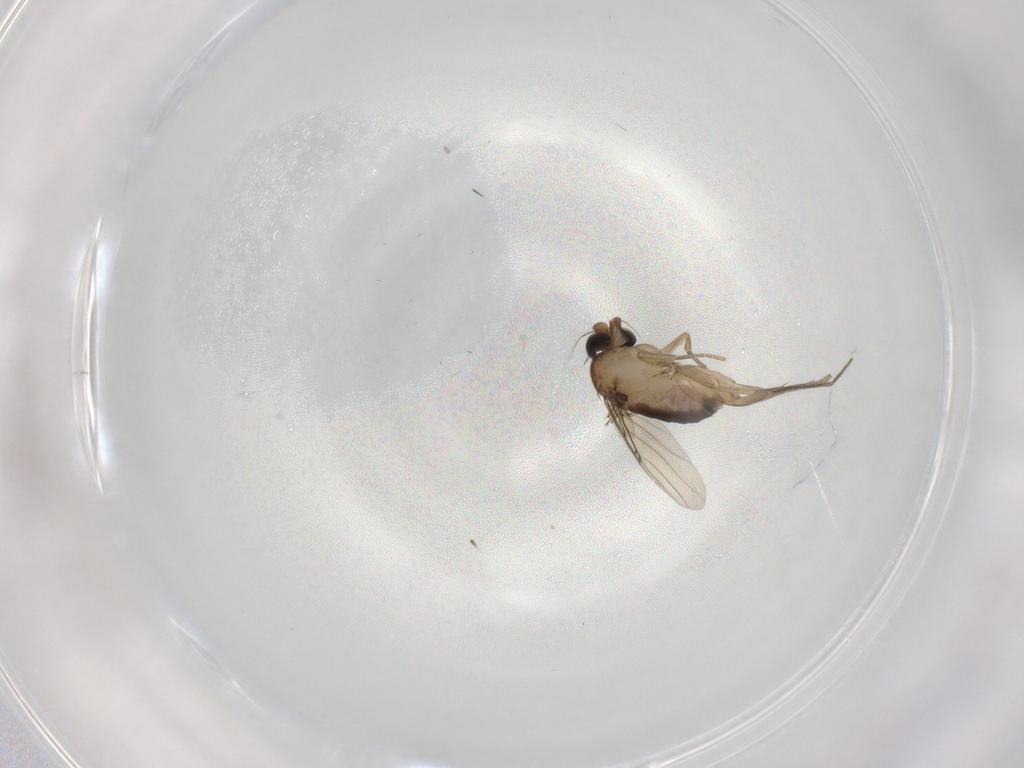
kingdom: Animalia
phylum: Arthropoda
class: Insecta
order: Diptera
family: Phoridae
